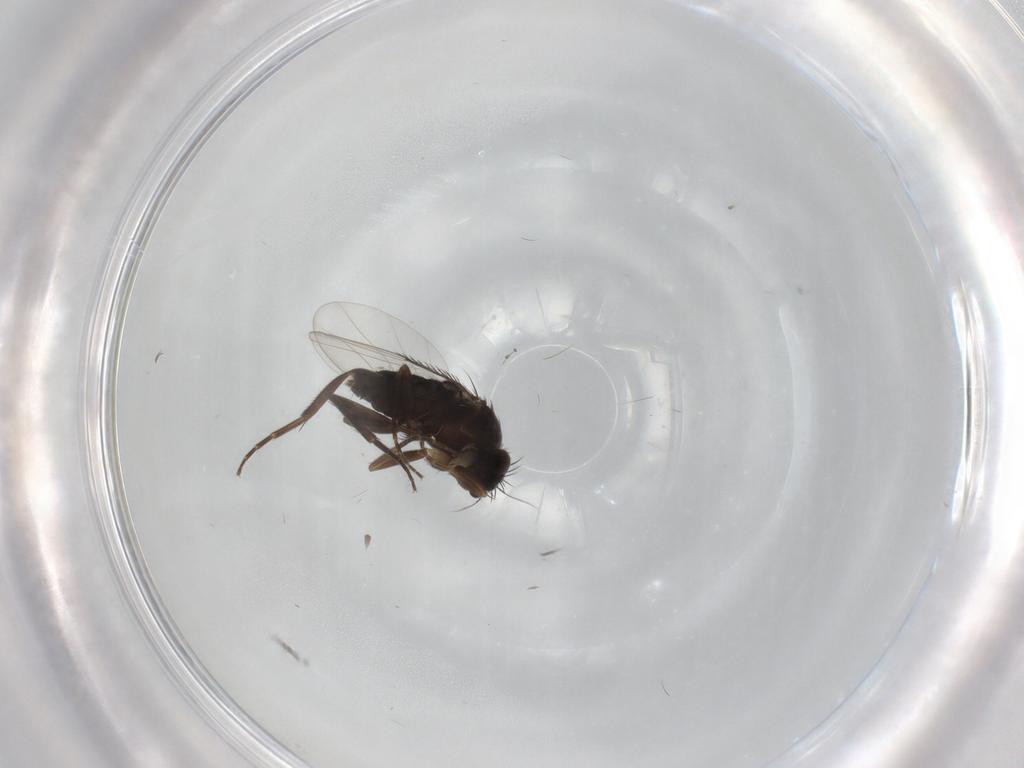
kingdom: Animalia
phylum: Arthropoda
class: Insecta
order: Diptera
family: Phoridae
